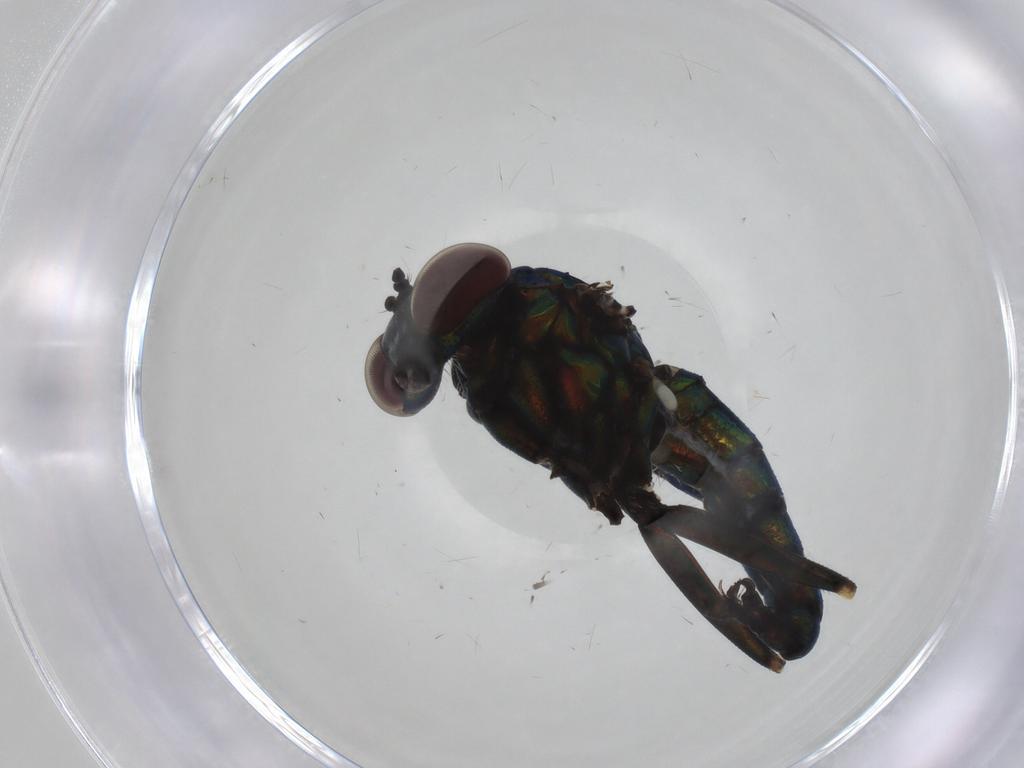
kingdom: Animalia
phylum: Arthropoda
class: Insecta
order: Diptera
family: Dolichopodidae
